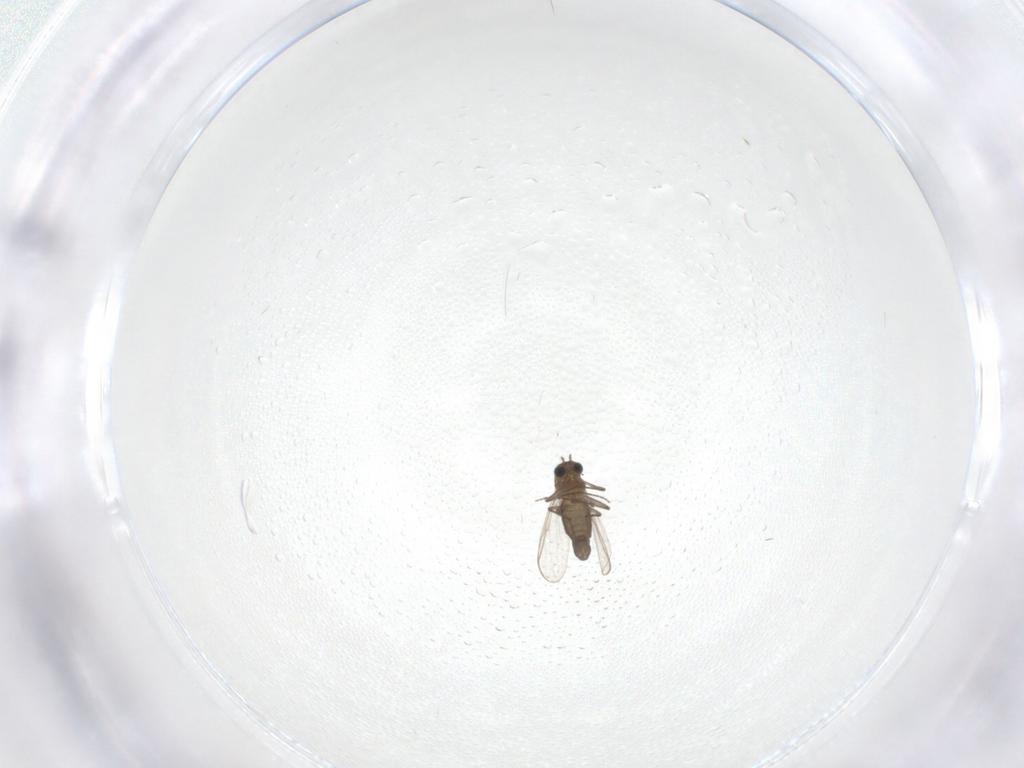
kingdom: Animalia
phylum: Arthropoda
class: Insecta
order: Diptera
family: Chironomidae
